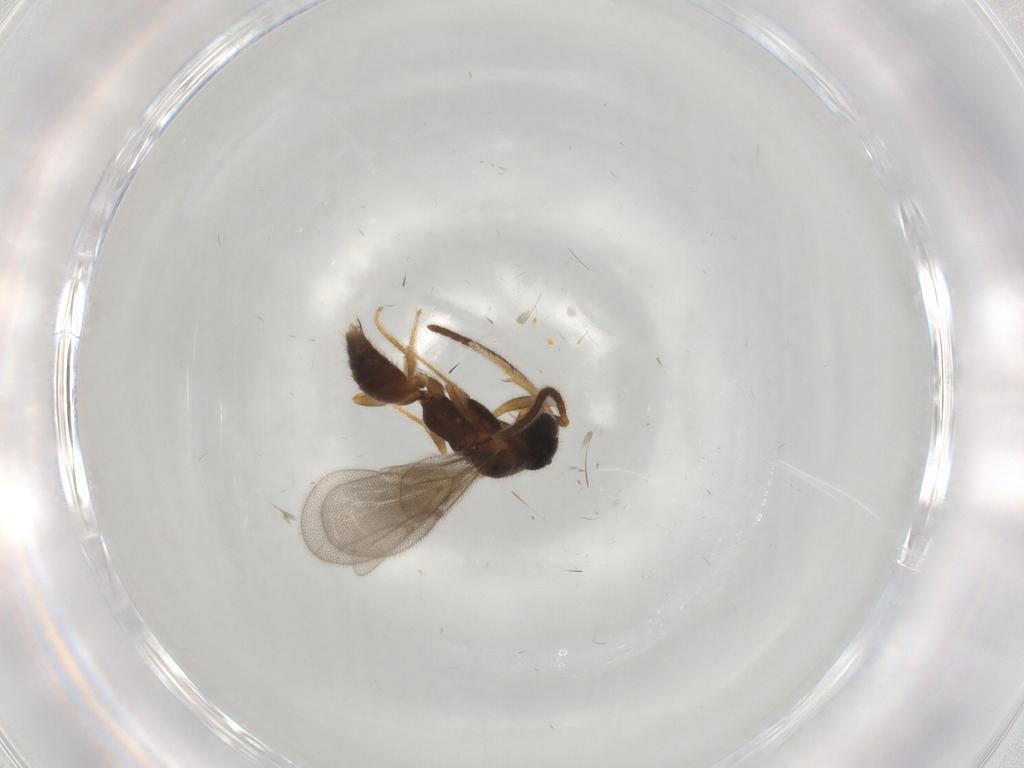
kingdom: Animalia
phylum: Arthropoda
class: Insecta
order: Hymenoptera
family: Bethylidae
